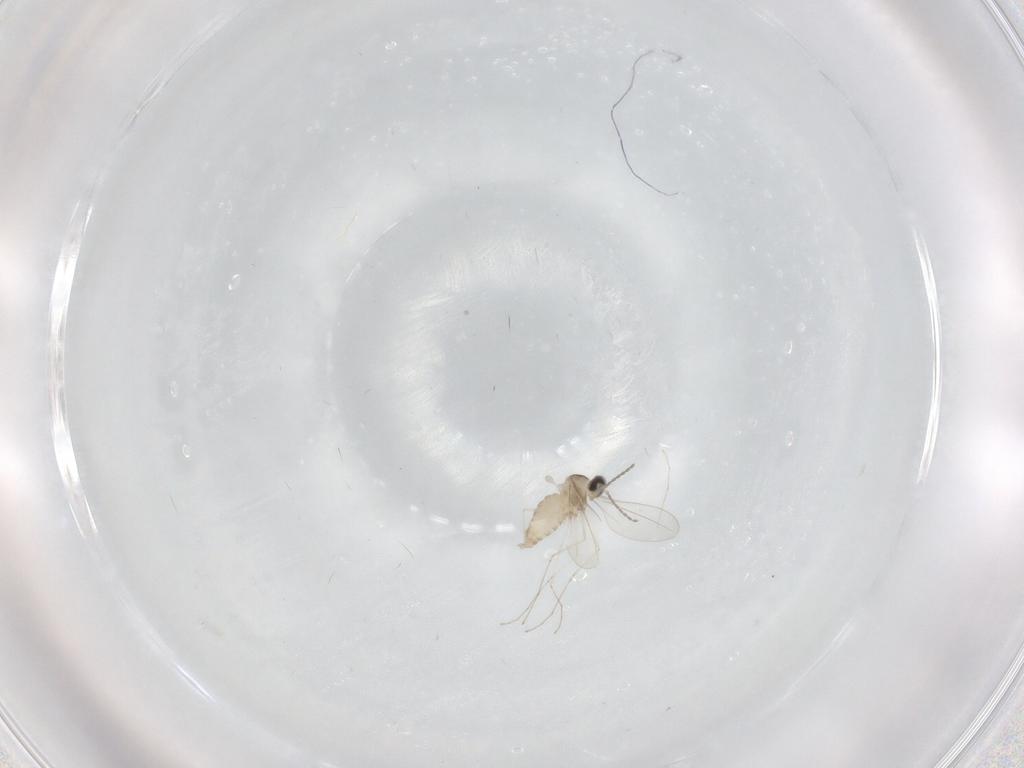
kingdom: Animalia
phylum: Arthropoda
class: Insecta
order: Diptera
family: Cecidomyiidae
